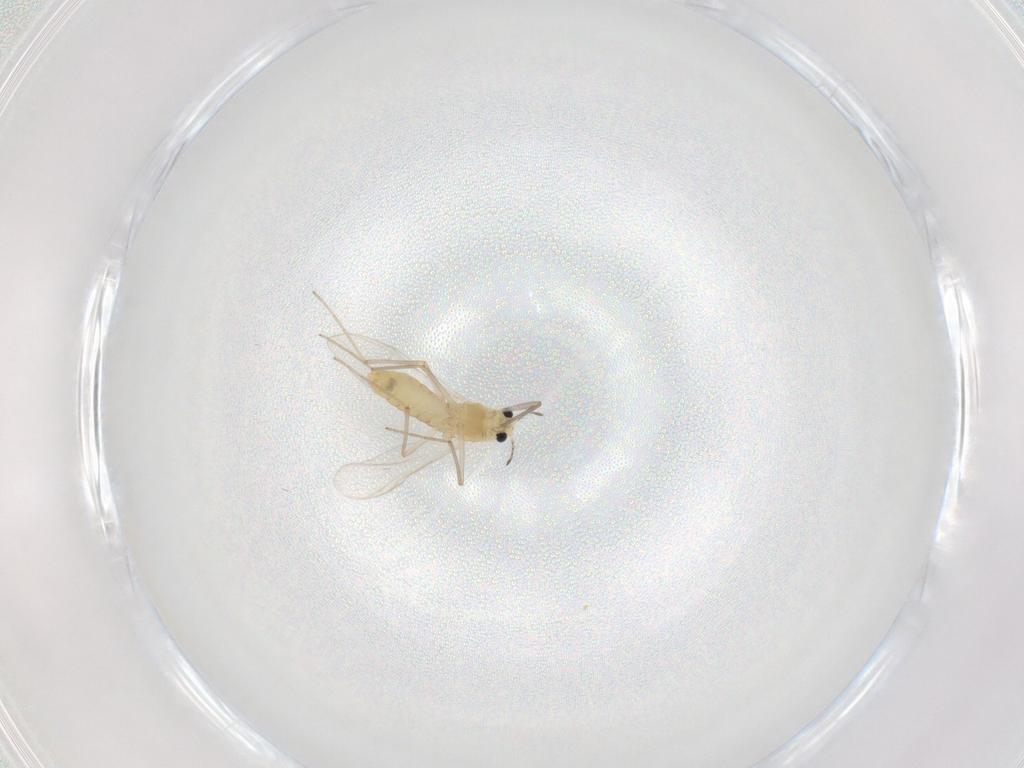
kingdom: Animalia
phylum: Arthropoda
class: Insecta
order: Diptera
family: Chironomidae
